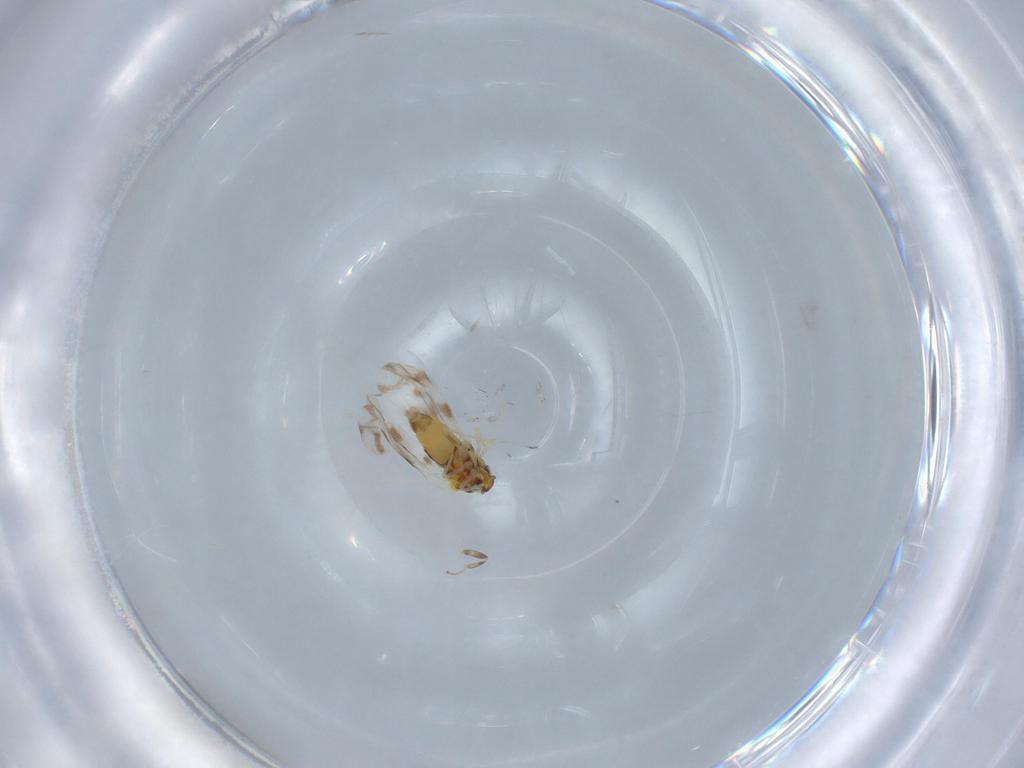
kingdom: Animalia
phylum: Arthropoda
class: Insecta
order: Hemiptera
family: Aleyrodidae
